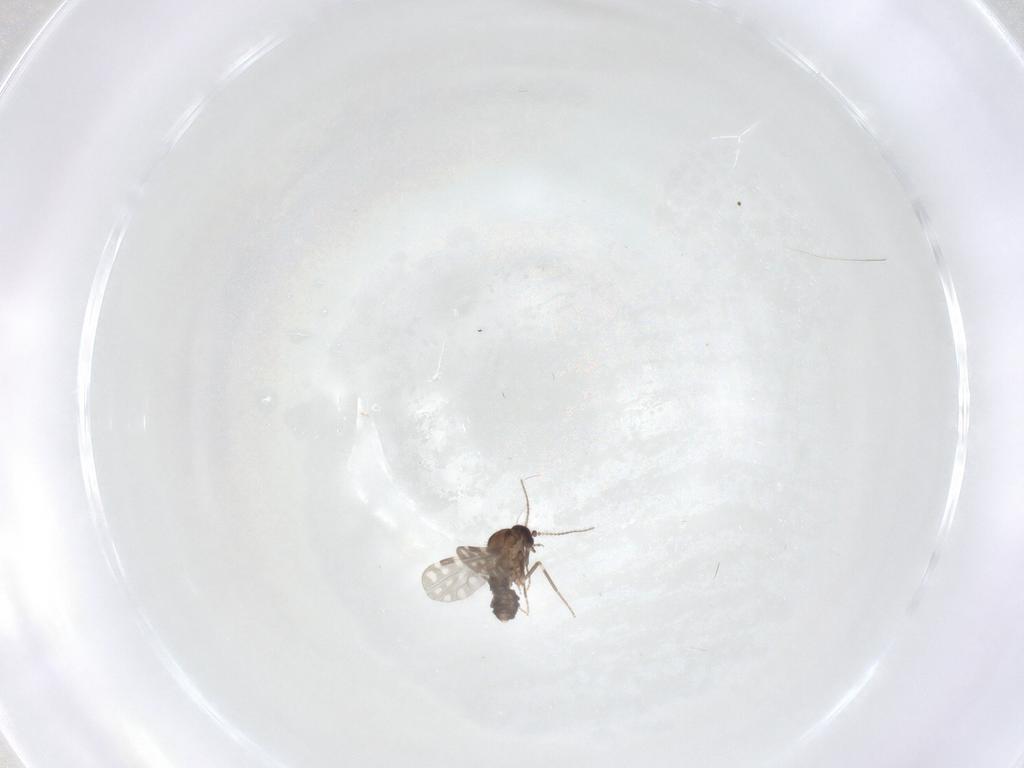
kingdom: Animalia
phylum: Arthropoda
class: Insecta
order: Diptera
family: Ceratopogonidae
